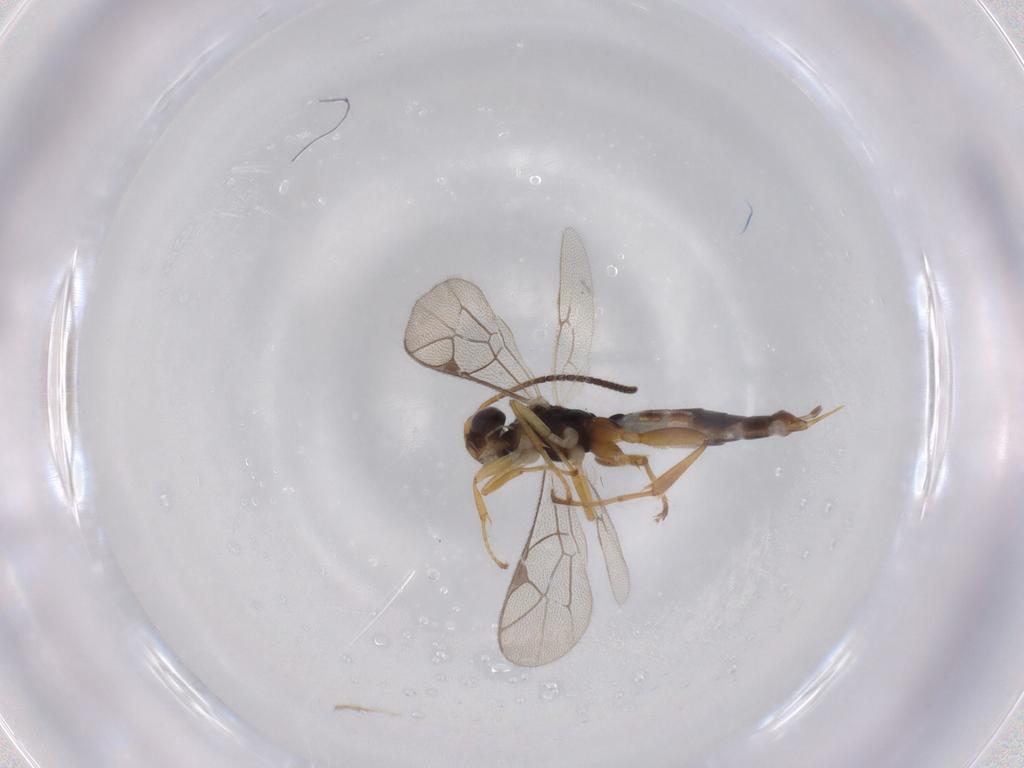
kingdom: Animalia
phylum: Arthropoda
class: Insecta
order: Hymenoptera
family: Ichneumonidae
